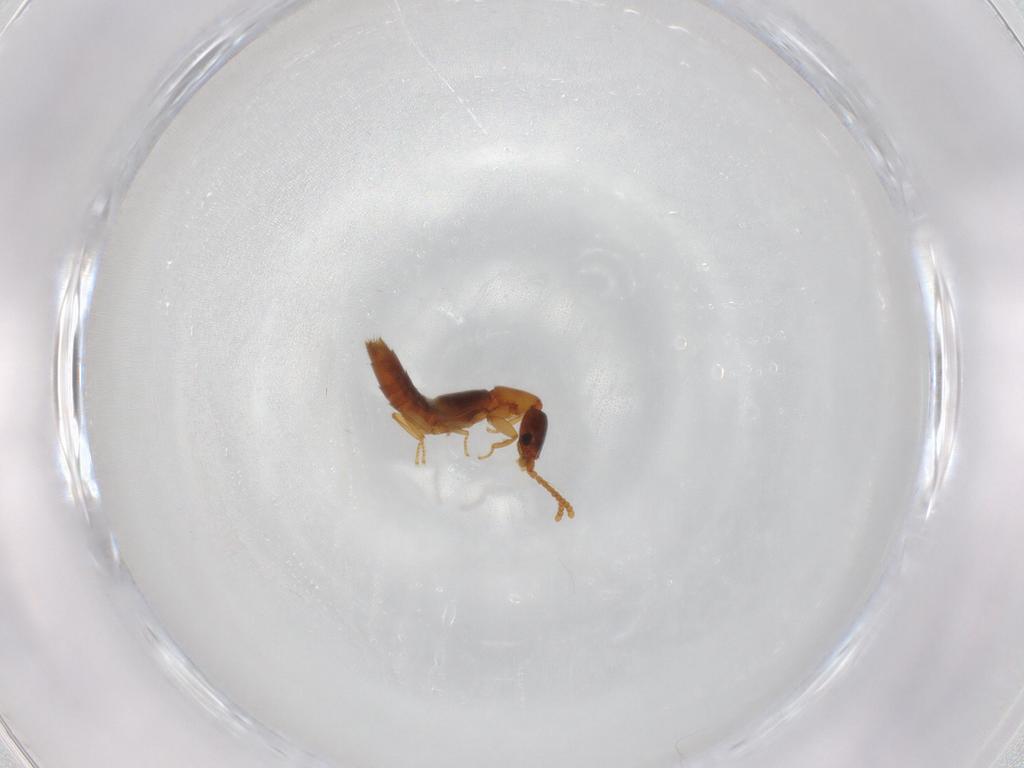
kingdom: Animalia
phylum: Arthropoda
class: Insecta
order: Coleoptera
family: Staphylinidae
